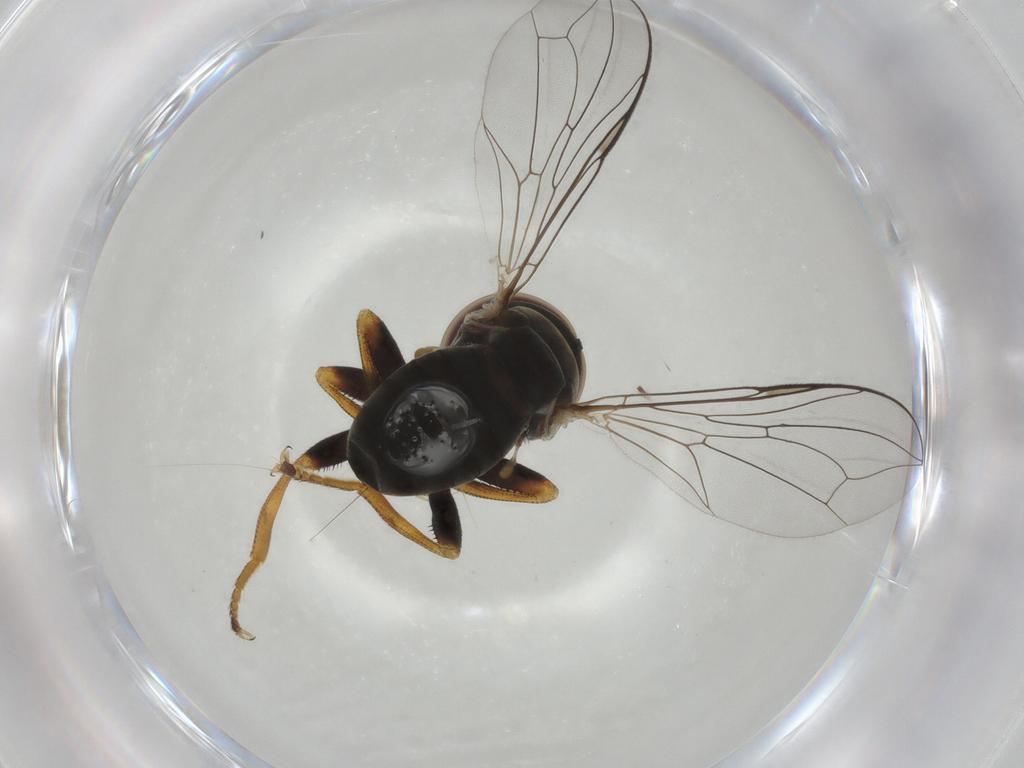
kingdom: Animalia
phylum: Arthropoda
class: Insecta
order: Diptera
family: Pipunculidae
